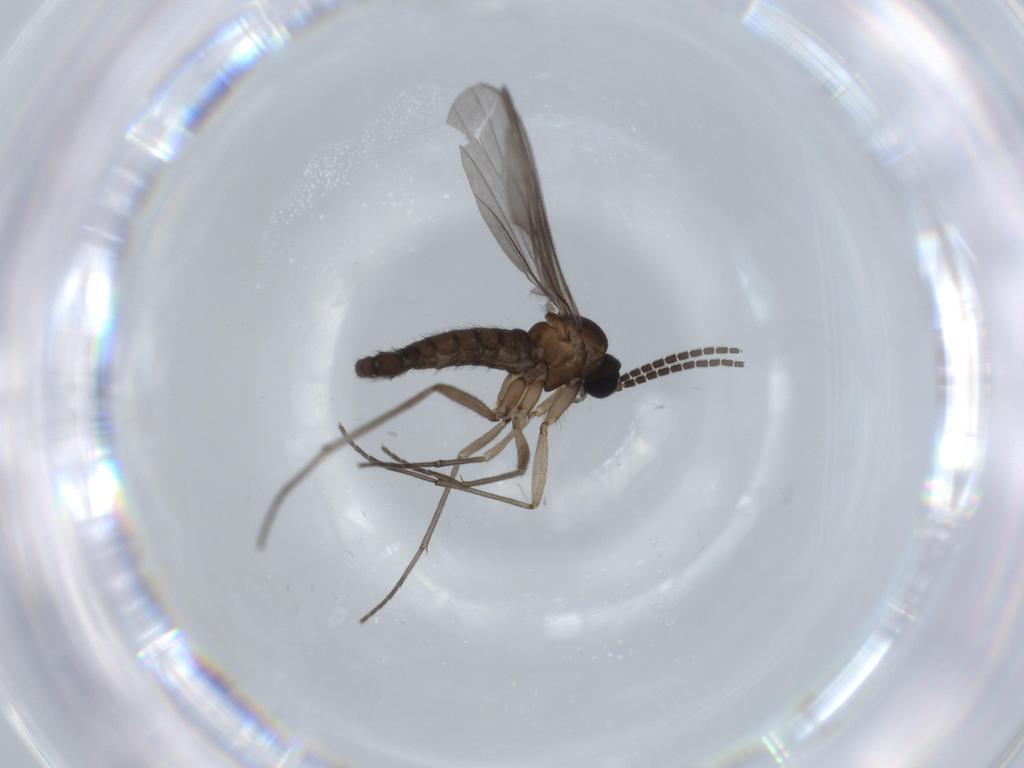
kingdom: Animalia
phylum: Arthropoda
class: Insecta
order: Diptera
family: Sciaridae
